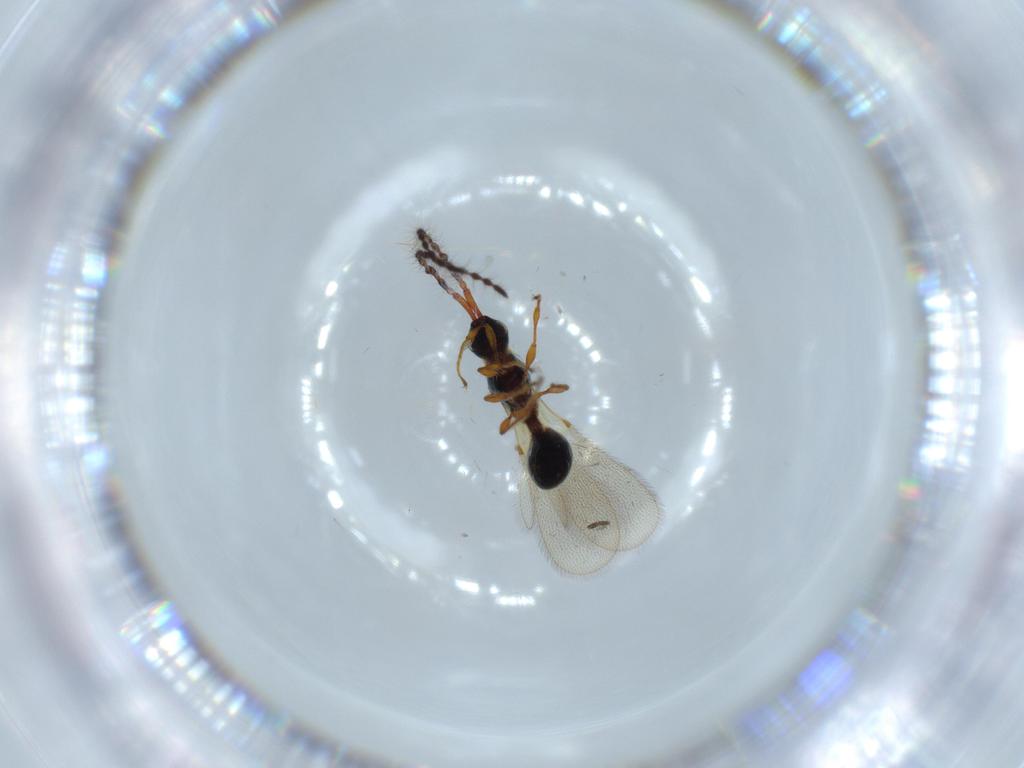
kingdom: Animalia
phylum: Arthropoda
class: Insecta
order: Hymenoptera
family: Diapriidae
